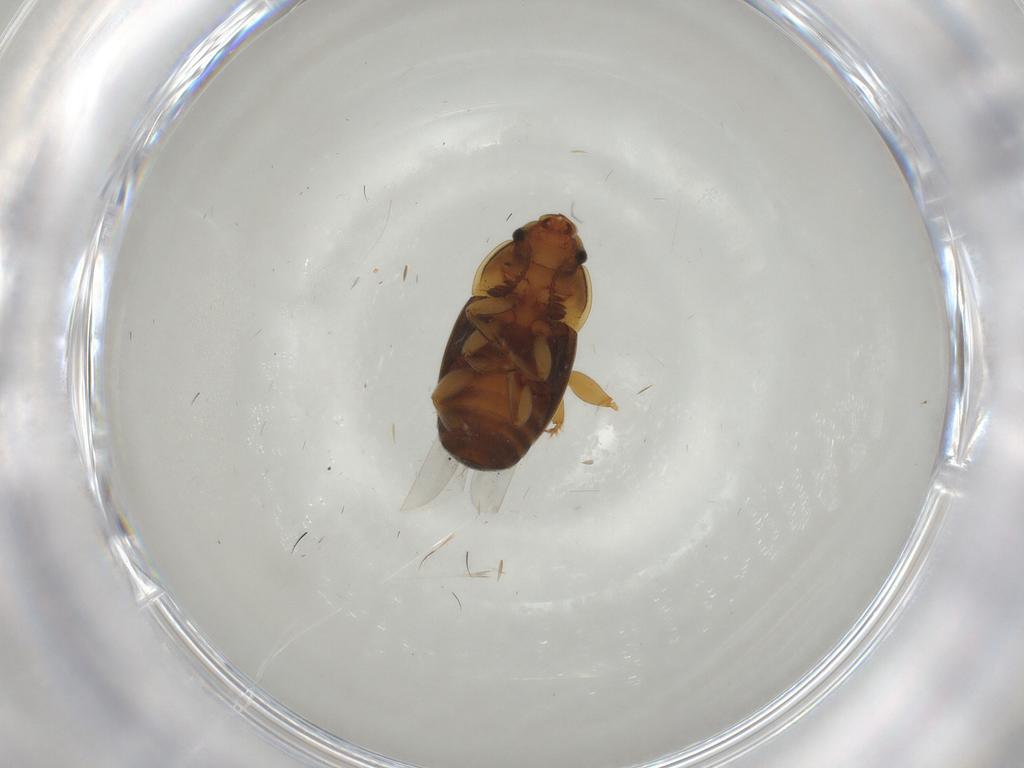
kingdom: Animalia
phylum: Arthropoda
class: Insecta
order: Coleoptera
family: Nitidulidae
